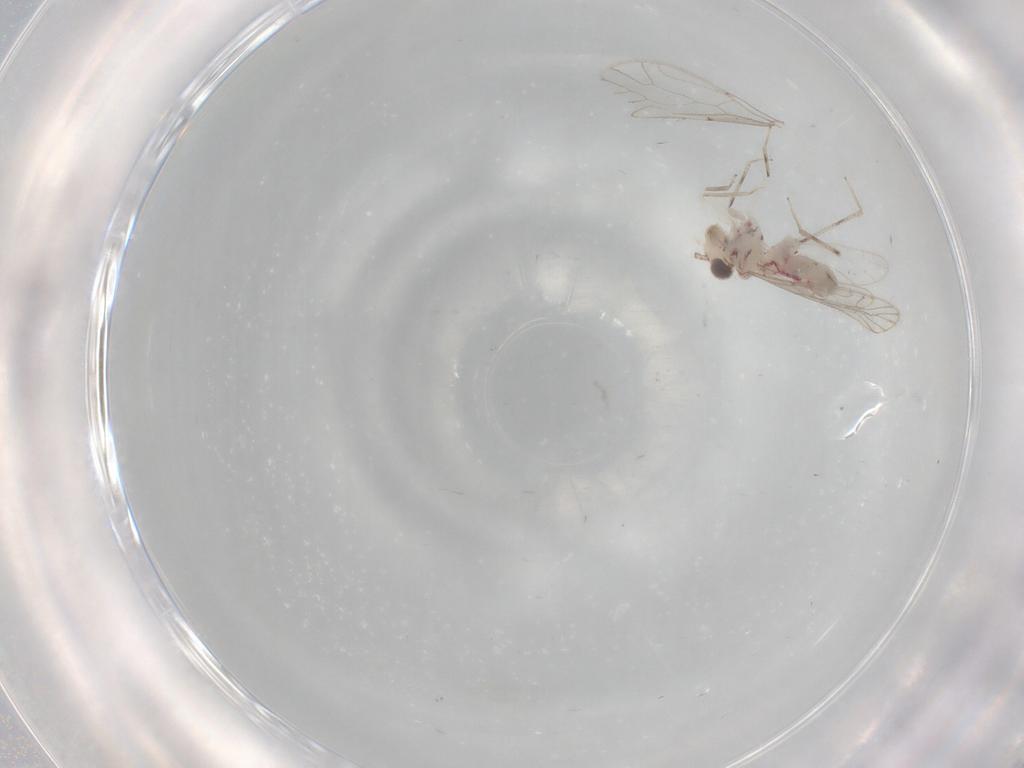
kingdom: Animalia
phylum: Arthropoda
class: Insecta
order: Psocodea
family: Caeciliusidae
